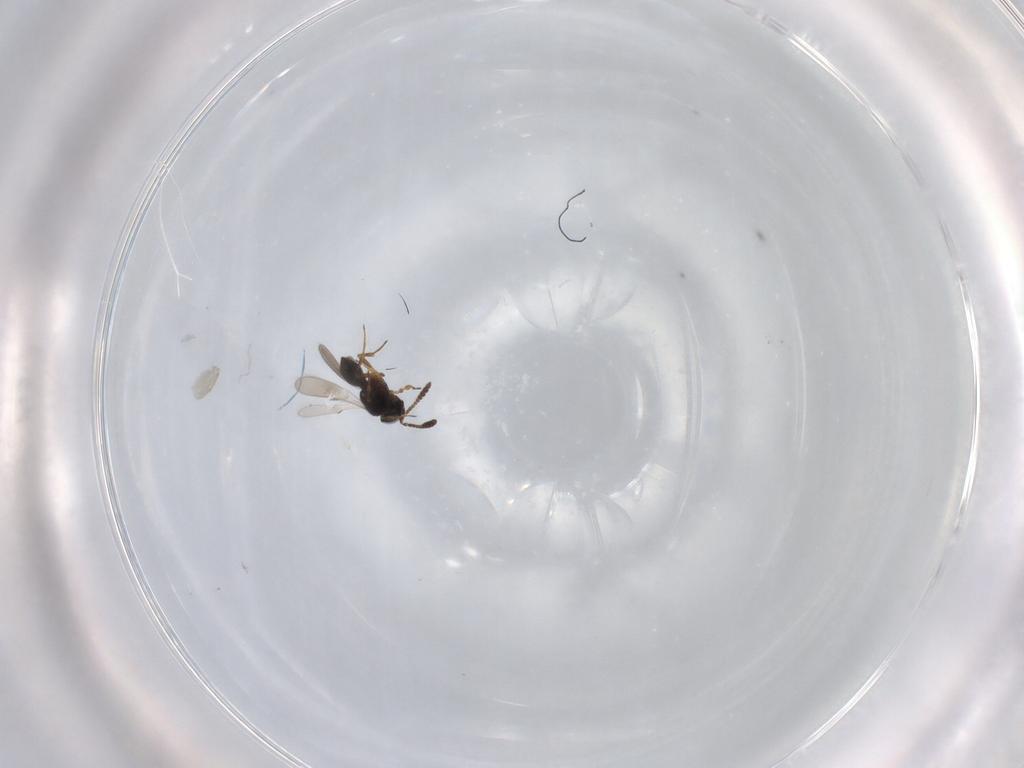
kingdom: Animalia
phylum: Arthropoda
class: Insecta
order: Hymenoptera
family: Scelionidae
